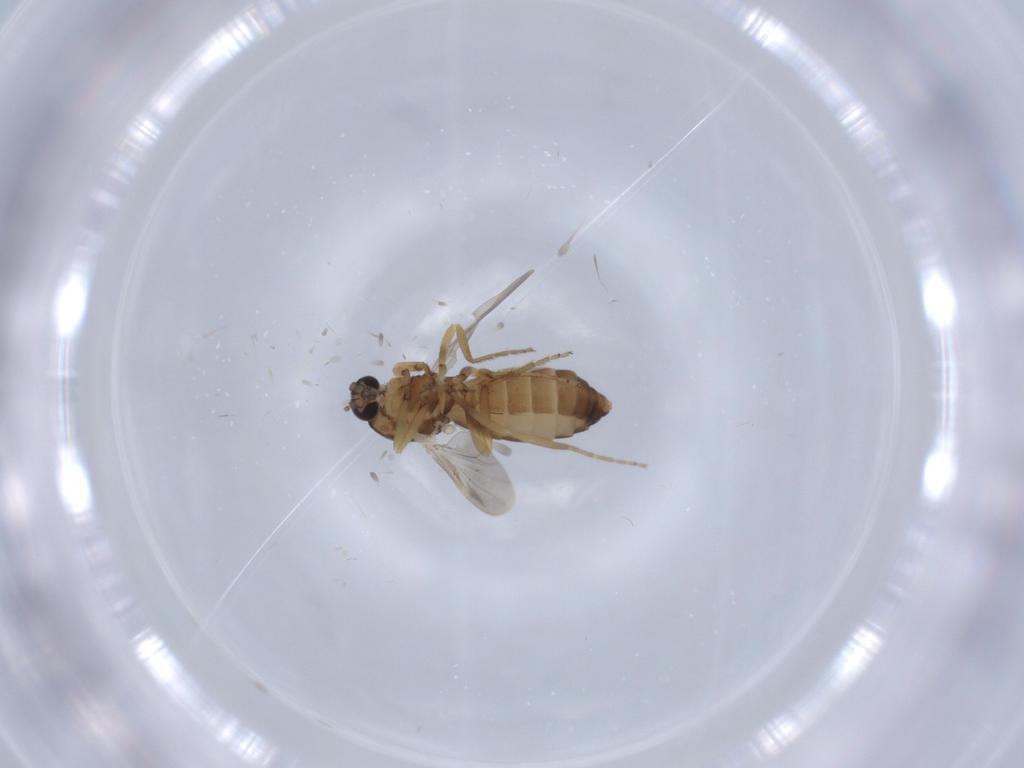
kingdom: Animalia
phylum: Arthropoda
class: Insecta
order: Diptera
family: Ceratopogonidae
